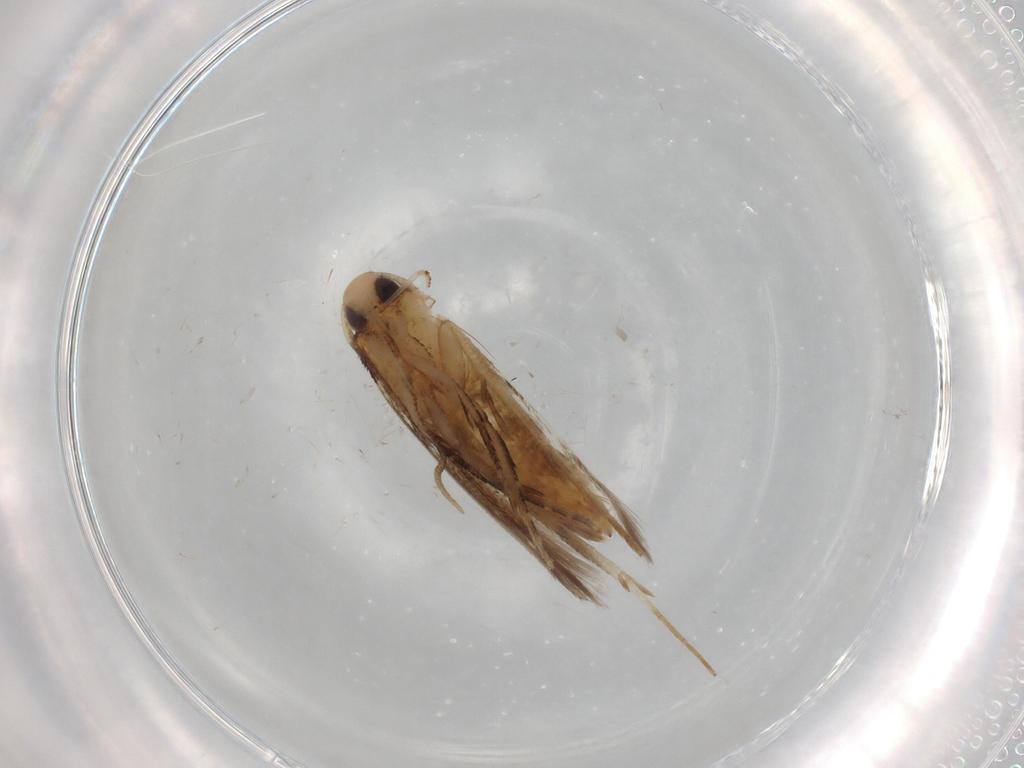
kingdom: Animalia
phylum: Arthropoda
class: Insecta
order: Lepidoptera
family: Cosmopterigidae
